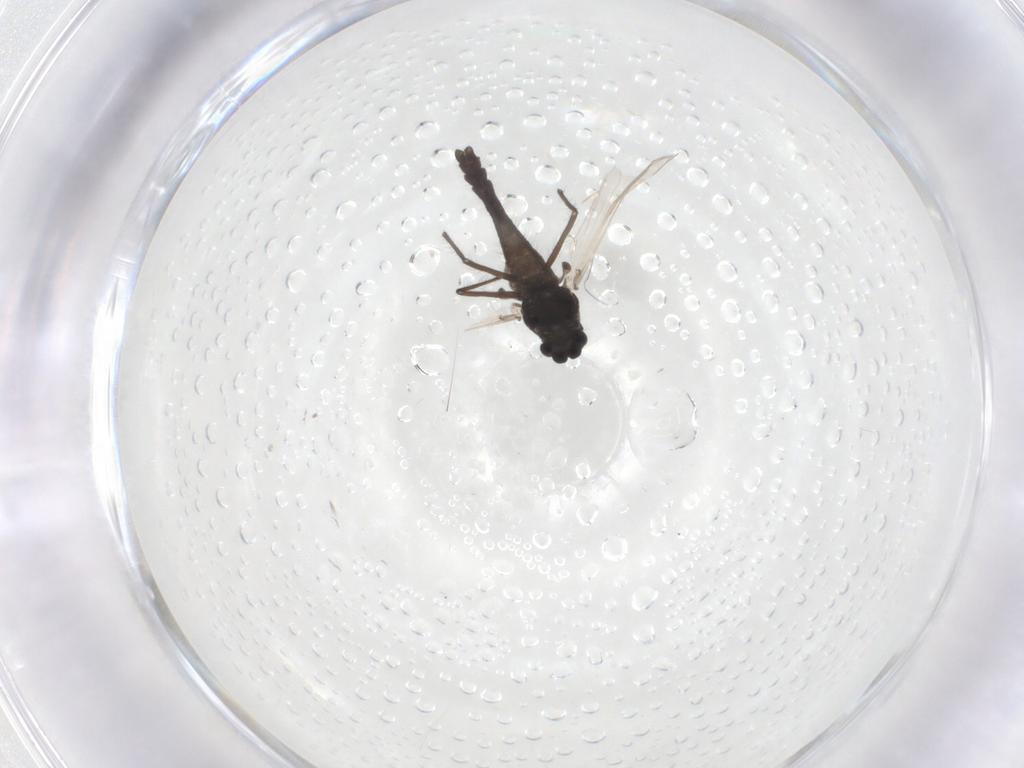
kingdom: Animalia
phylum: Arthropoda
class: Insecta
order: Diptera
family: Chironomidae
